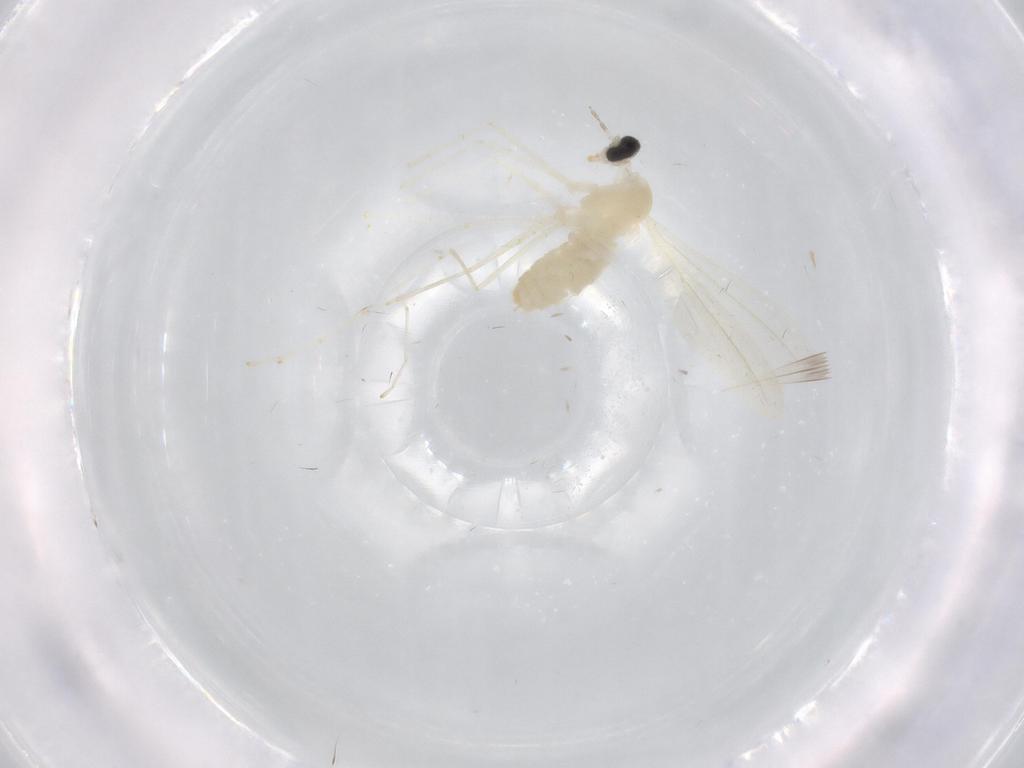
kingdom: Animalia
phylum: Arthropoda
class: Insecta
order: Diptera
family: Cecidomyiidae
